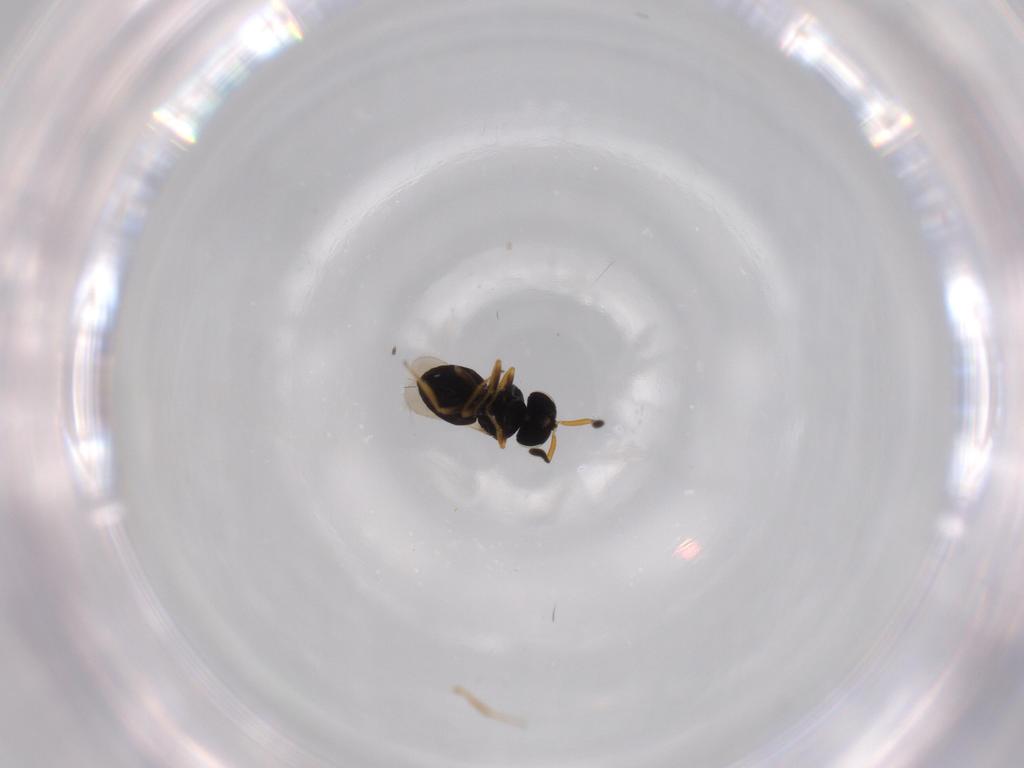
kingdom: Animalia
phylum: Arthropoda
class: Insecta
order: Hymenoptera
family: Scelionidae
